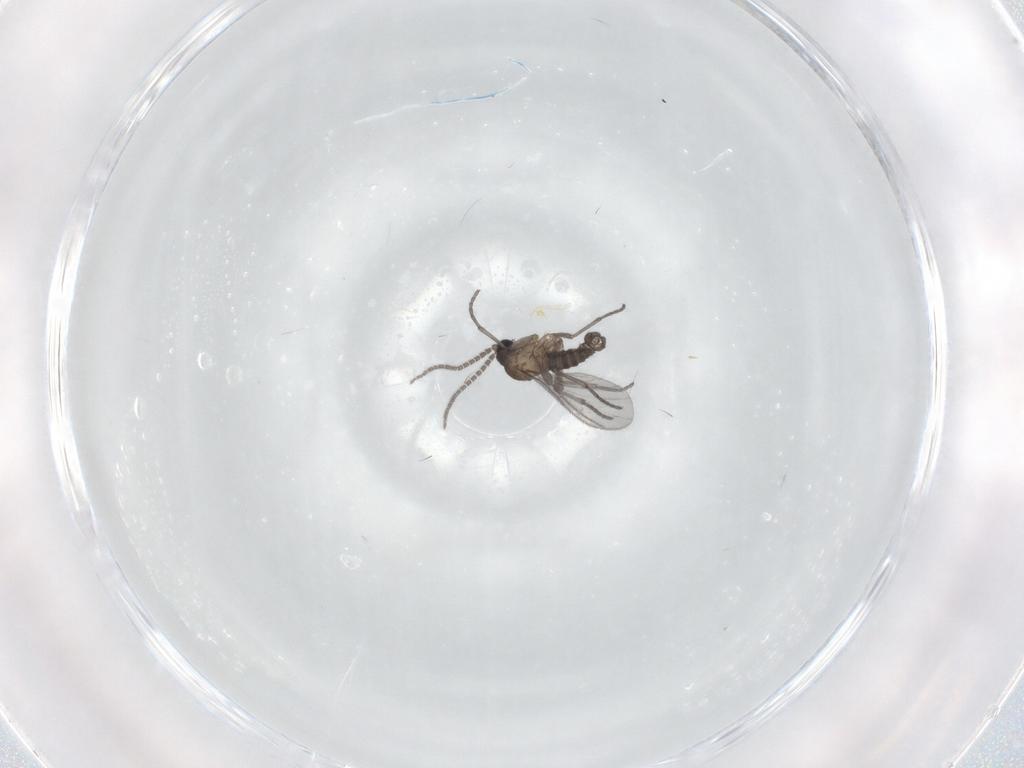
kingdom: Animalia
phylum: Arthropoda
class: Insecta
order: Diptera
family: Sciaridae
